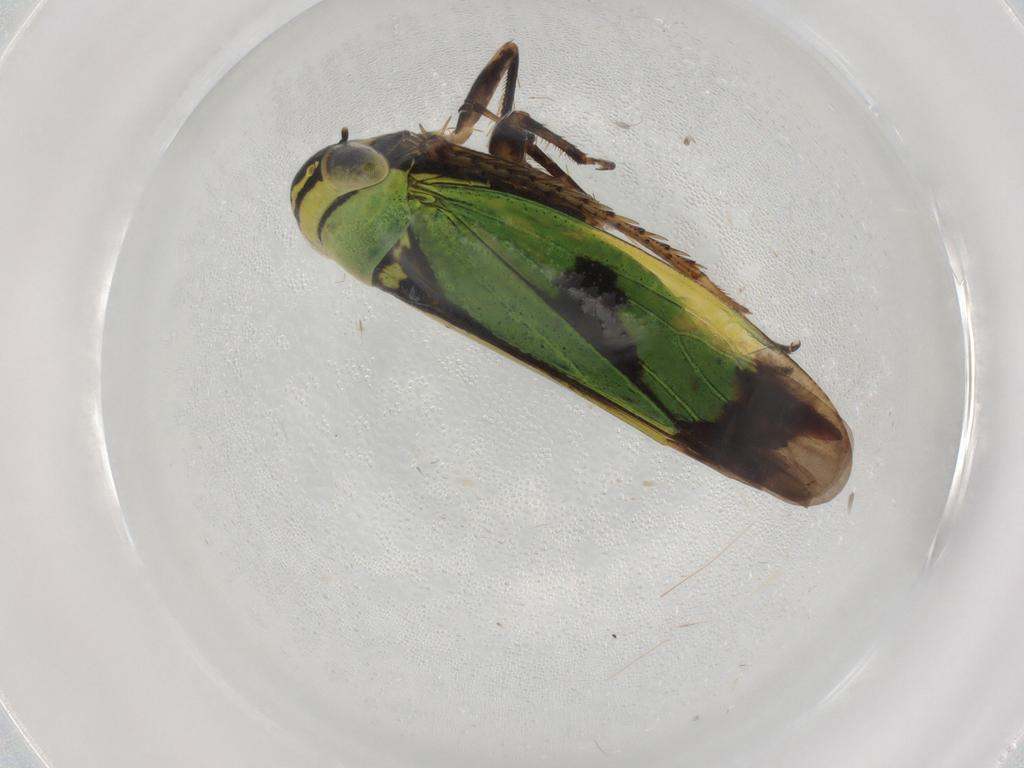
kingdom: Animalia
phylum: Arthropoda
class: Insecta
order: Hemiptera
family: Cicadellidae
